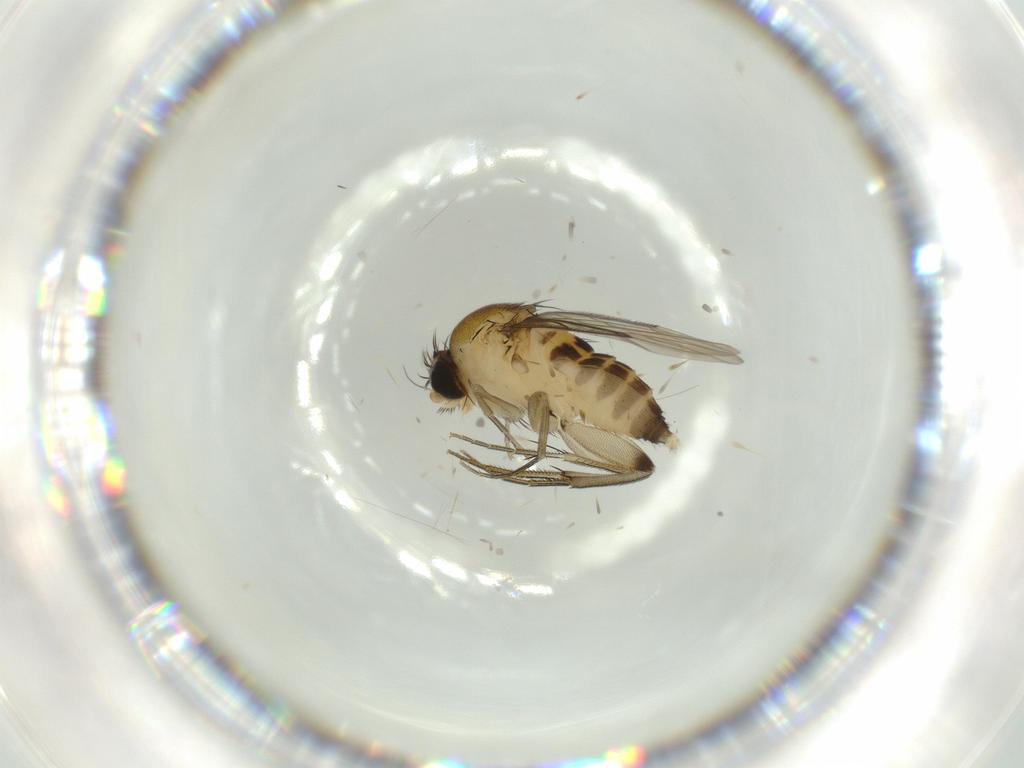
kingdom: Animalia
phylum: Arthropoda
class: Insecta
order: Diptera
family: Phoridae
